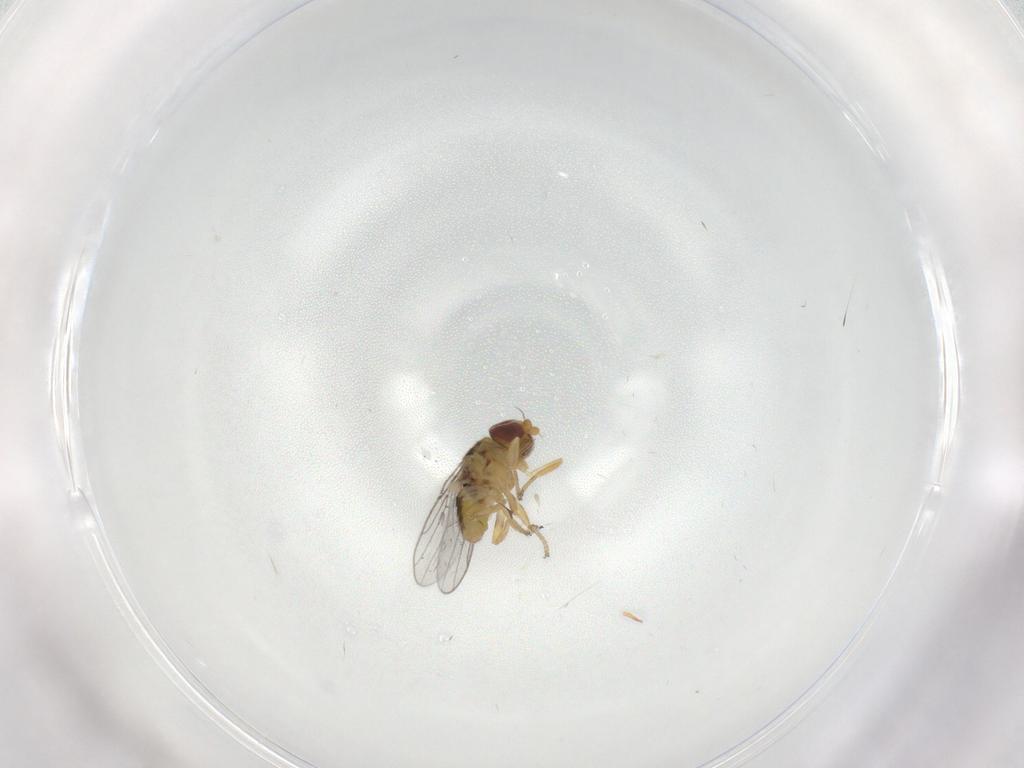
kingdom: Animalia
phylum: Arthropoda
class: Insecta
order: Diptera
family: Chloropidae
